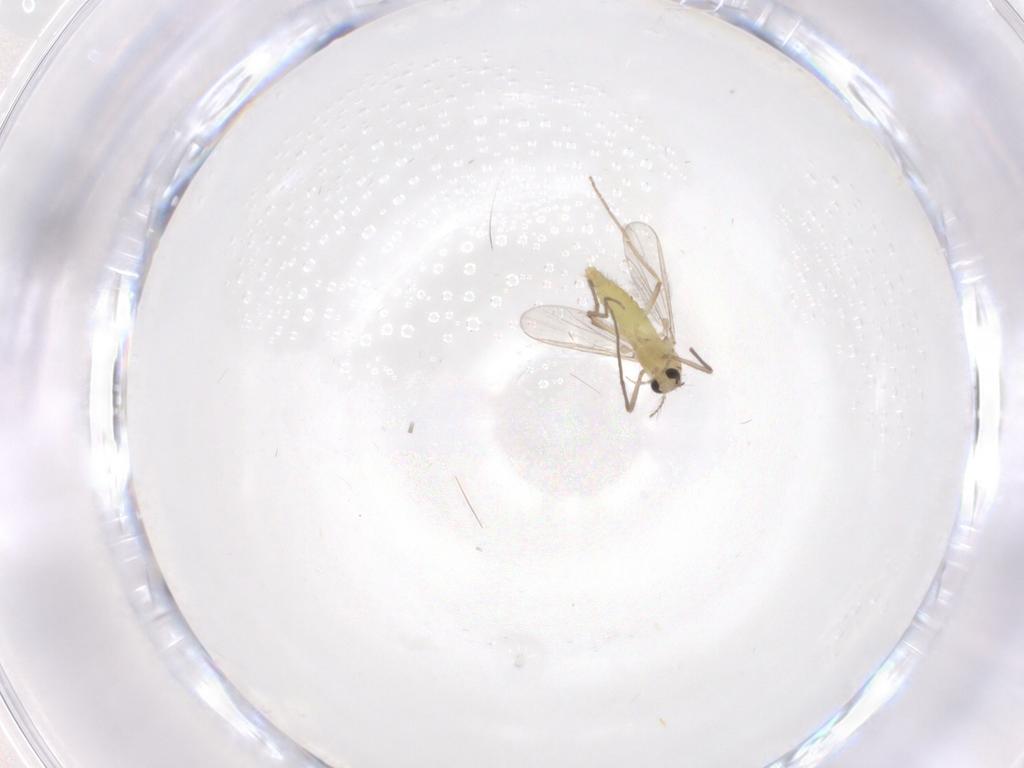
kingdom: Animalia
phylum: Arthropoda
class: Insecta
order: Diptera
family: Chironomidae
